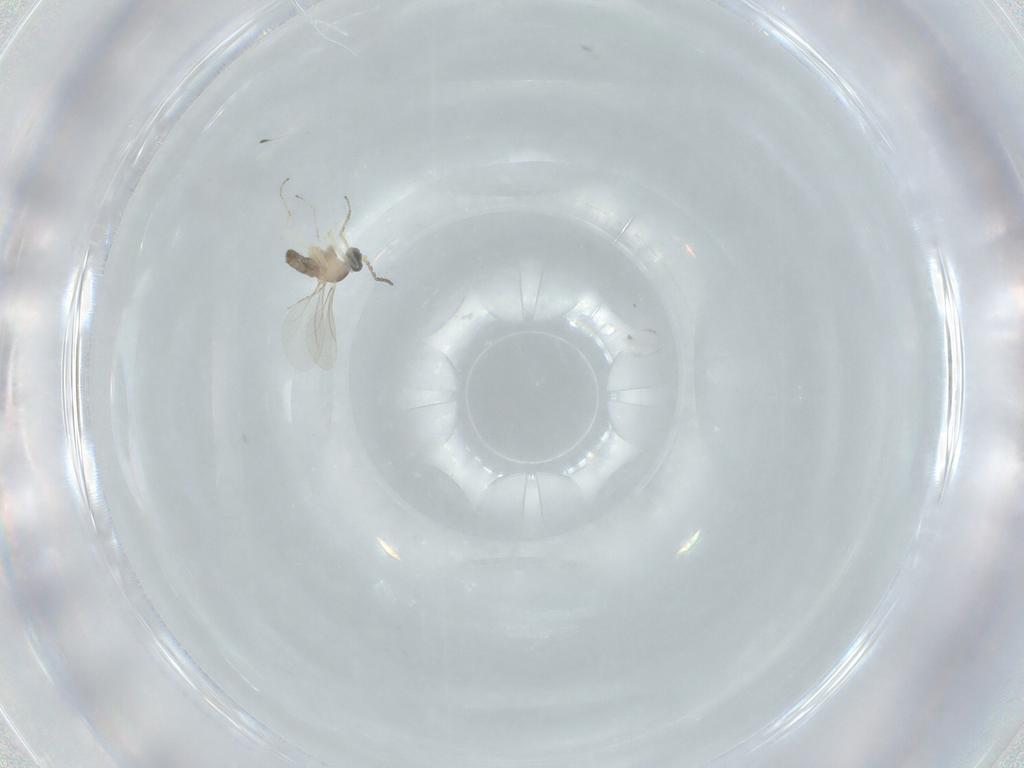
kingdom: Animalia
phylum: Arthropoda
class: Insecta
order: Diptera
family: Cecidomyiidae
